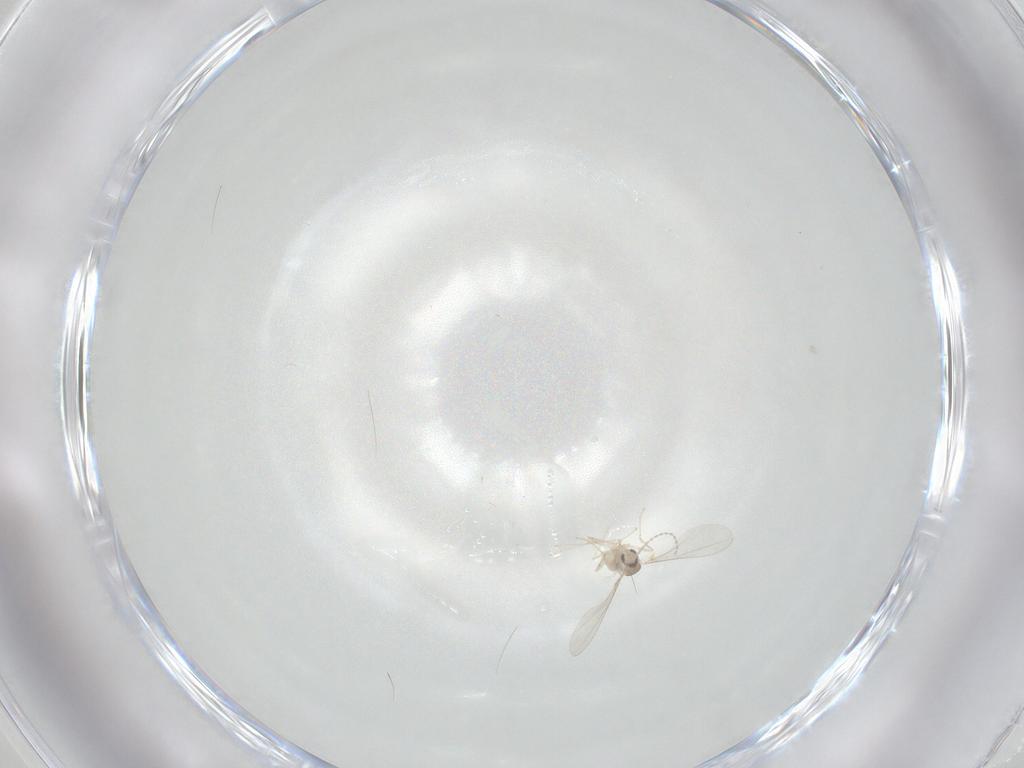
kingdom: Animalia
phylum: Arthropoda
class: Insecta
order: Diptera
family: Cecidomyiidae
